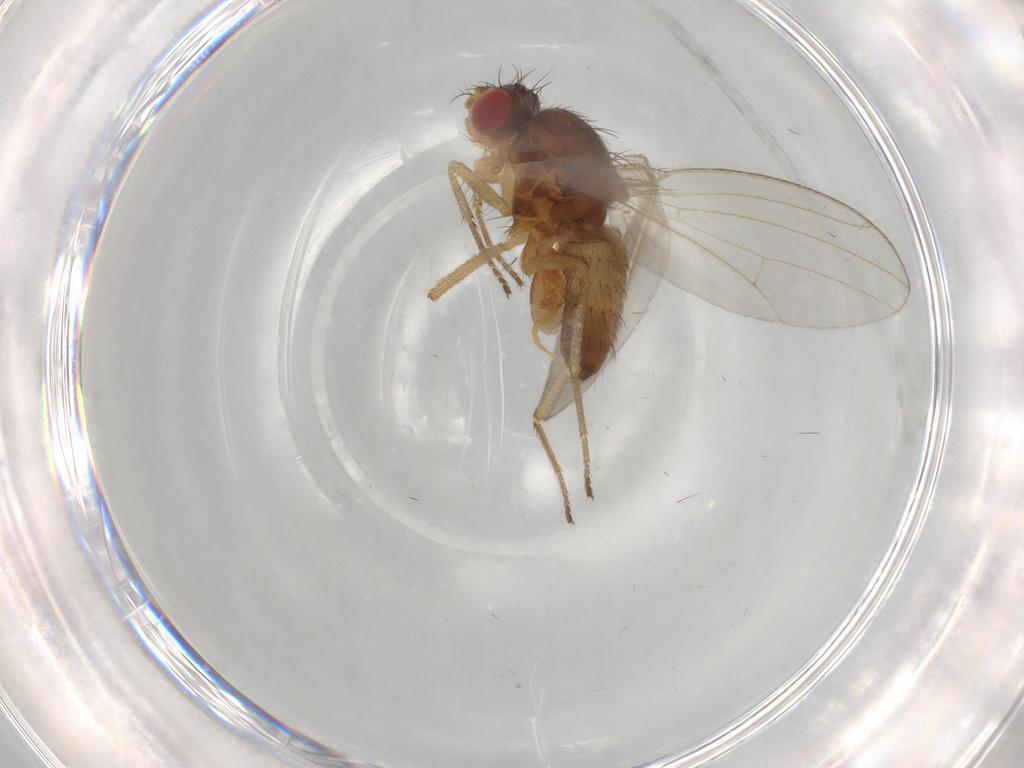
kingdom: Animalia
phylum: Arthropoda
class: Insecta
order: Diptera
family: Drosophilidae
